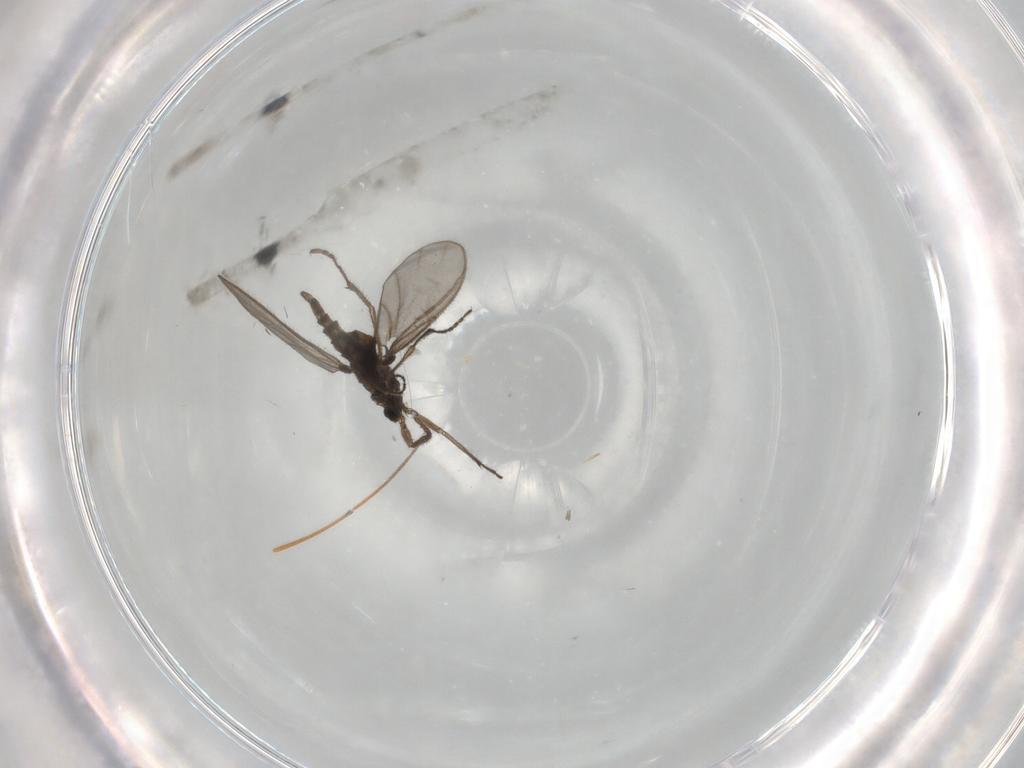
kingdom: Animalia
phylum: Arthropoda
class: Insecta
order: Diptera
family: Sciaridae
